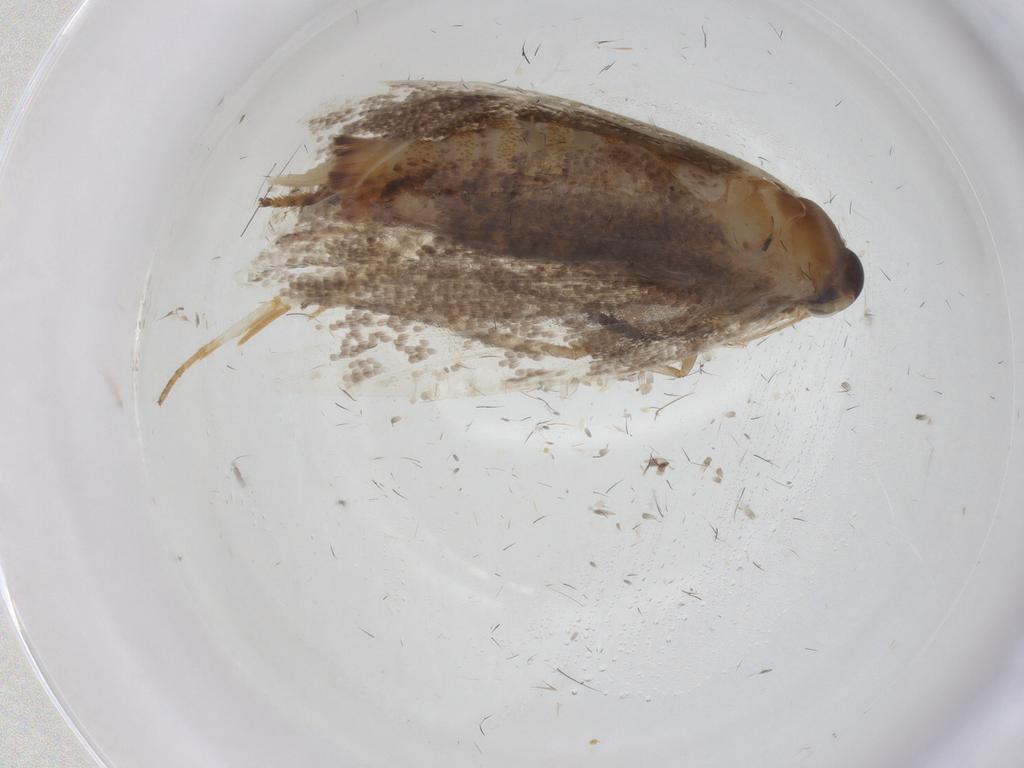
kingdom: Animalia
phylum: Arthropoda
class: Insecta
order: Lepidoptera
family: Oecophoridae
